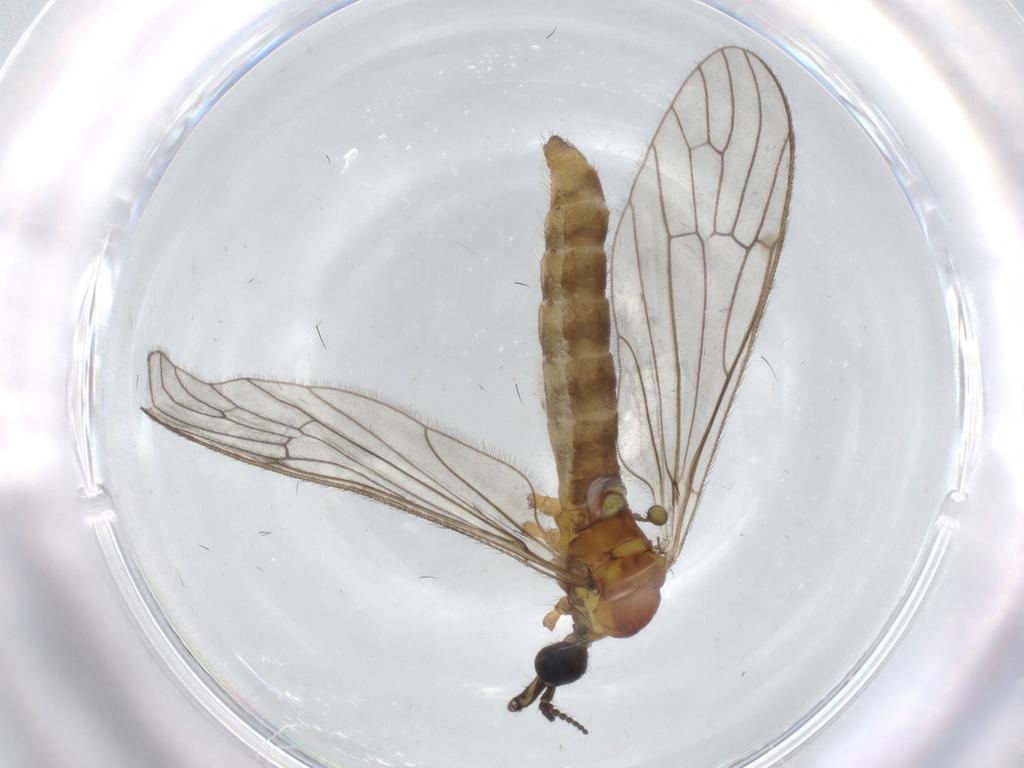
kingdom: Animalia
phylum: Arthropoda
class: Insecta
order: Diptera
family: Limoniidae
